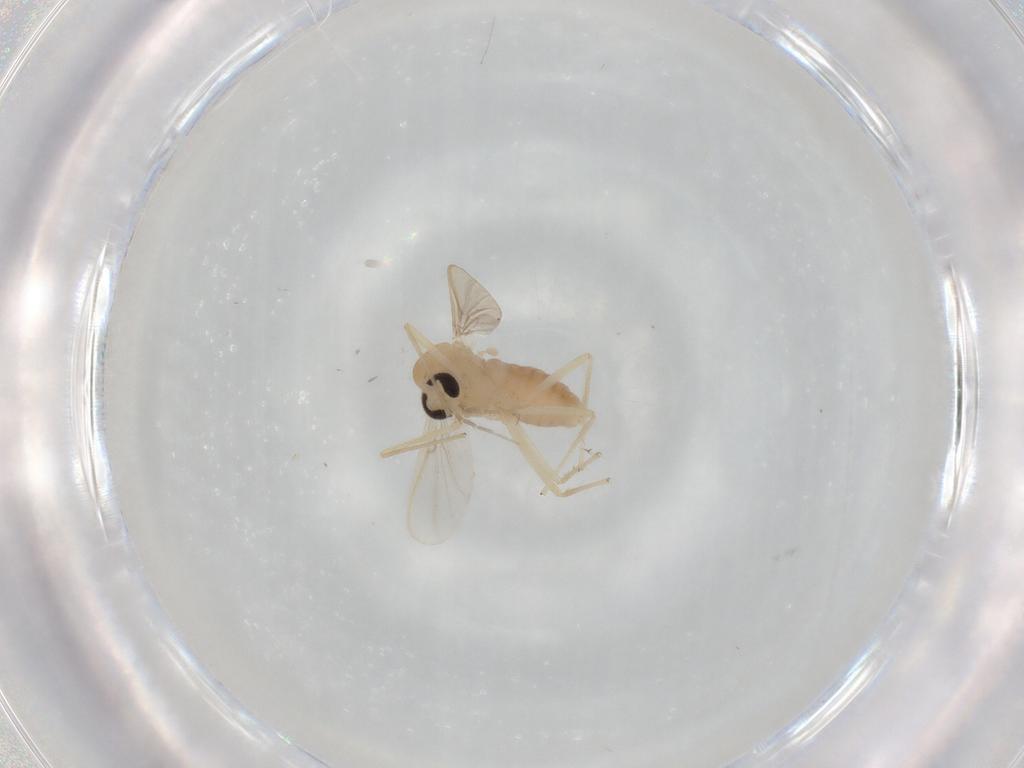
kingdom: Animalia
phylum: Arthropoda
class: Insecta
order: Diptera
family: Chironomidae
